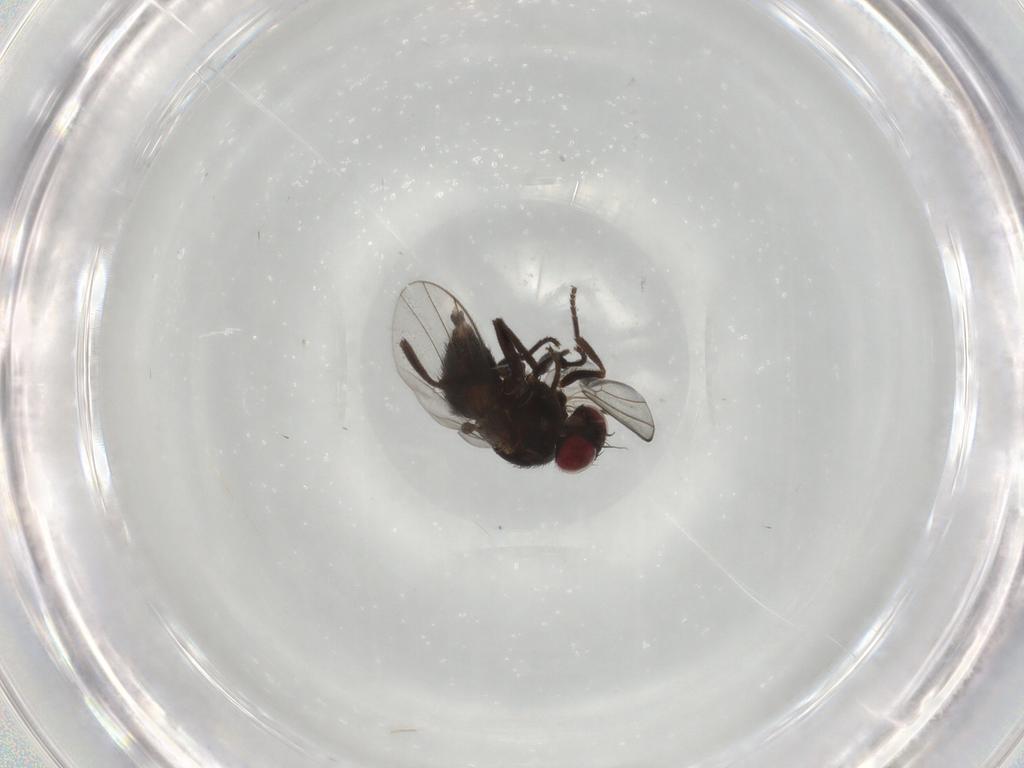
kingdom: Animalia
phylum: Arthropoda
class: Insecta
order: Diptera
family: Agromyzidae
